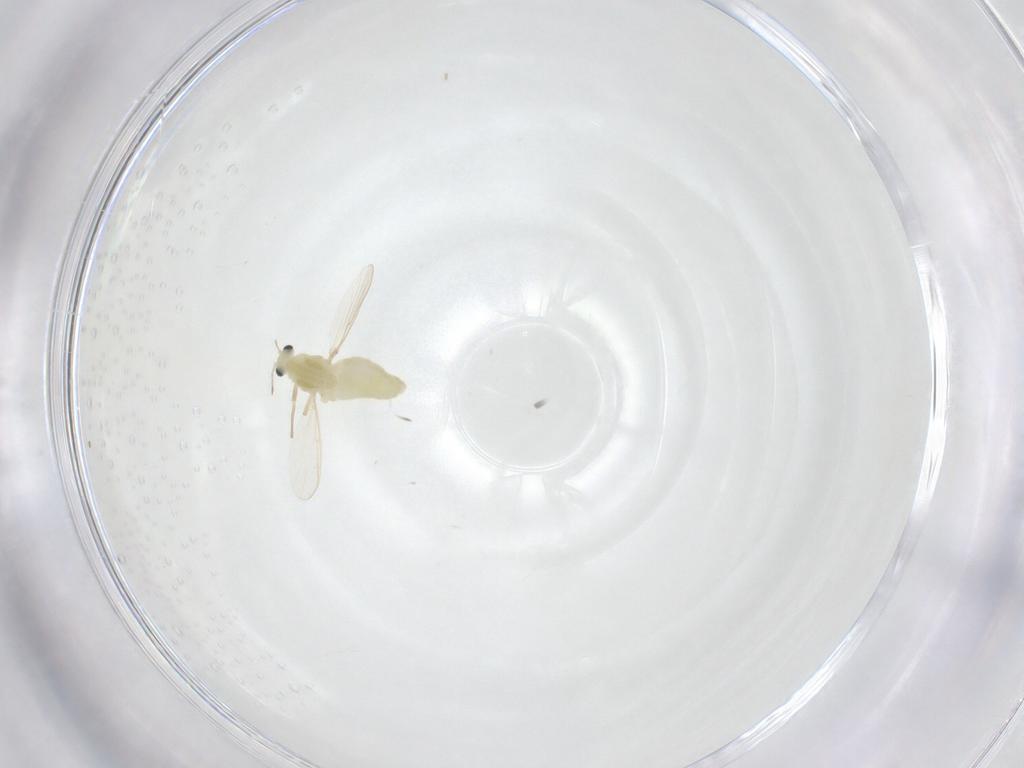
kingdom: Animalia
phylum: Arthropoda
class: Insecta
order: Diptera
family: Chironomidae
